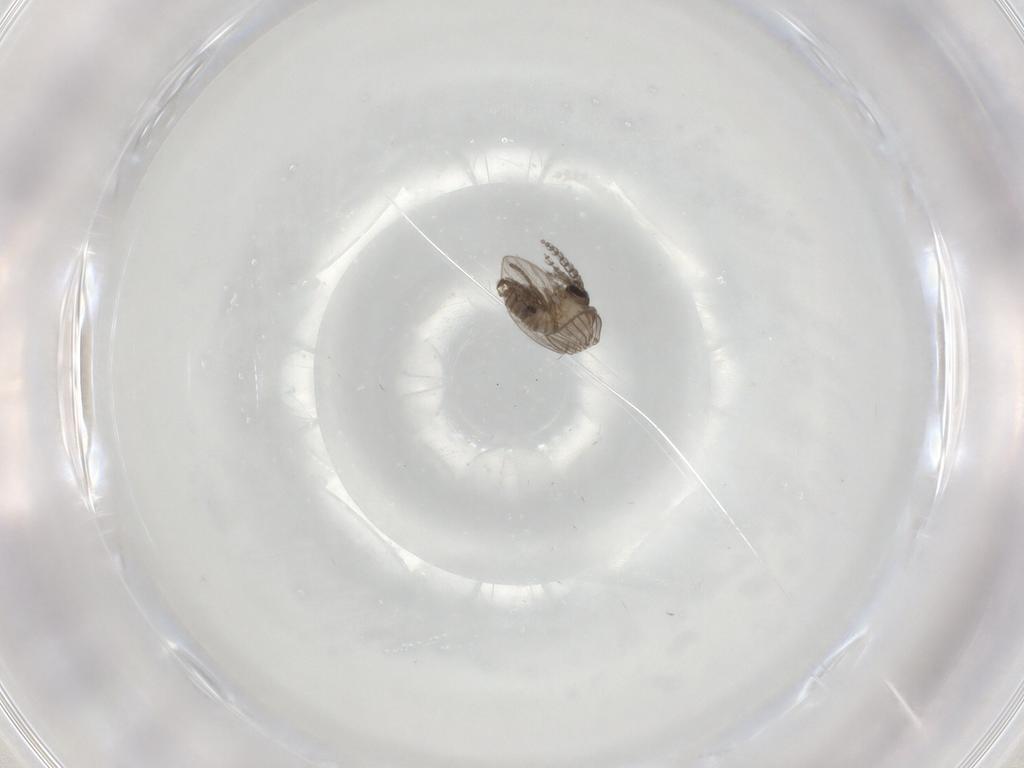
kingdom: Animalia
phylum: Arthropoda
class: Insecta
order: Diptera
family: Psychodidae
